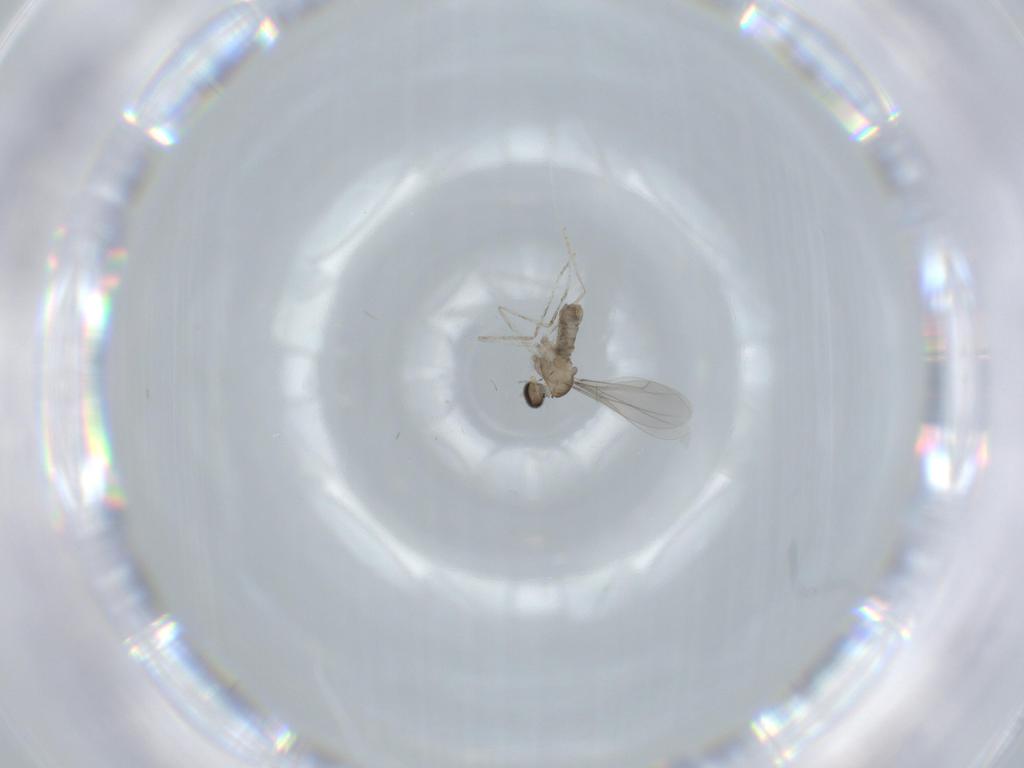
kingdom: Animalia
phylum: Arthropoda
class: Insecta
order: Diptera
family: Cecidomyiidae
